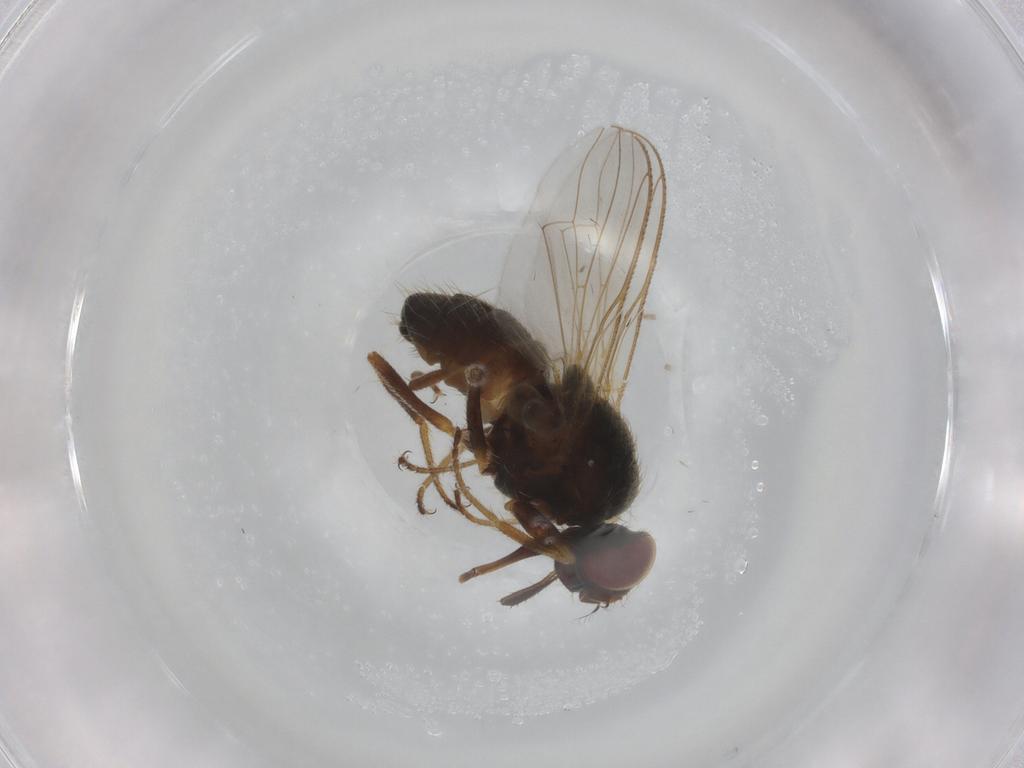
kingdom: Animalia
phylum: Arthropoda
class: Insecta
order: Diptera
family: Muscidae
